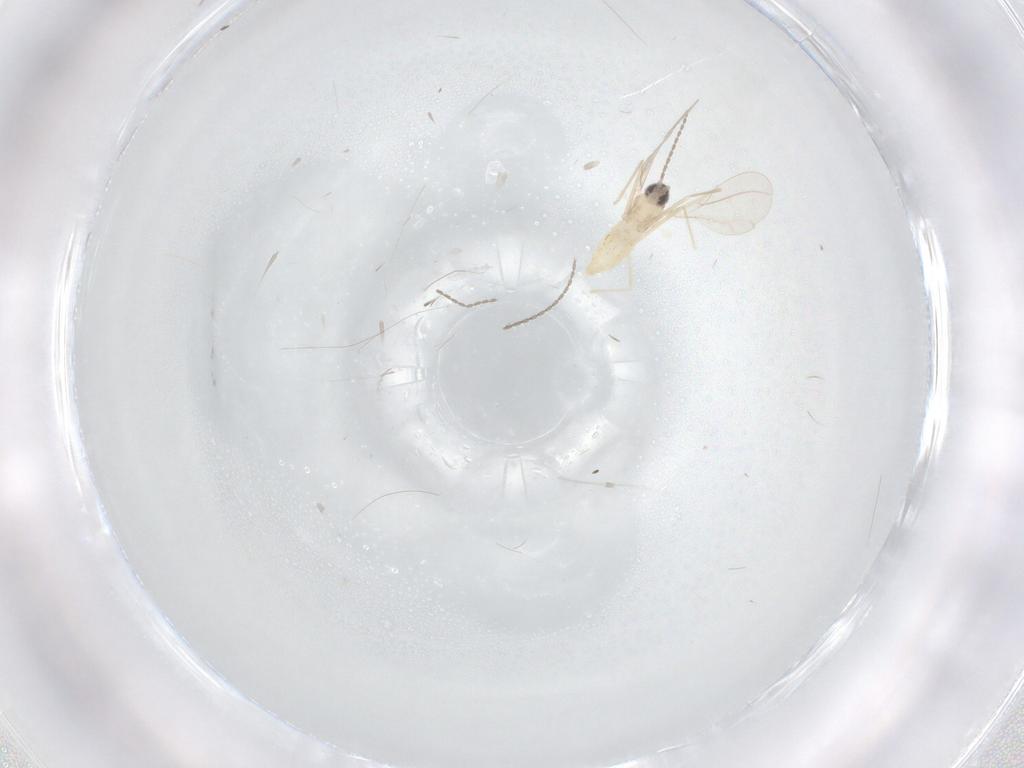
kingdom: Animalia
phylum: Arthropoda
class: Insecta
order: Diptera
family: Cecidomyiidae
